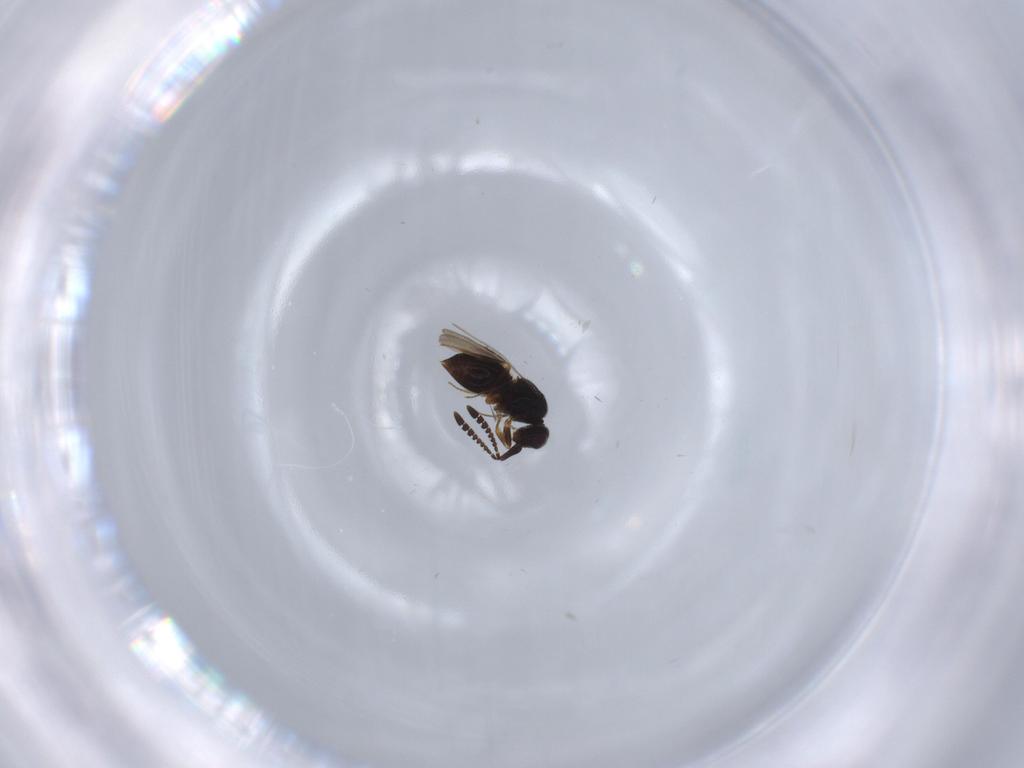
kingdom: Animalia
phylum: Arthropoda
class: Insecta
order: Hymenoptera
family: Ceraphronidae
